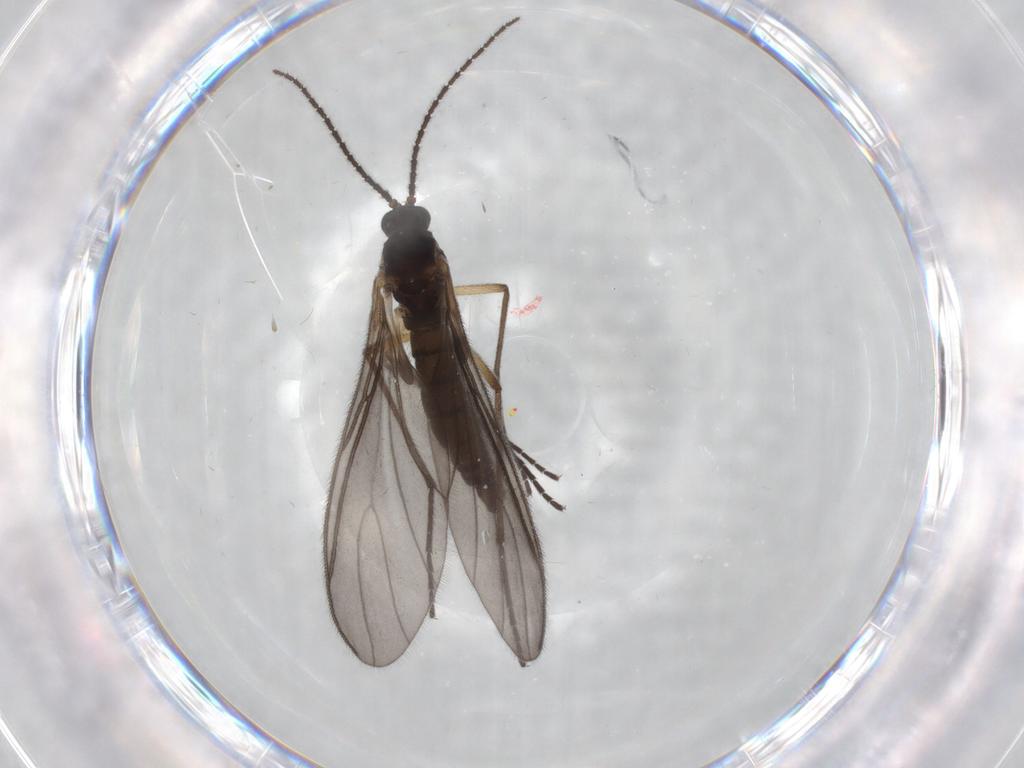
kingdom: Animalia
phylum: Arthropoda
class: Insecta
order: Diptera
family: Sciaridae
